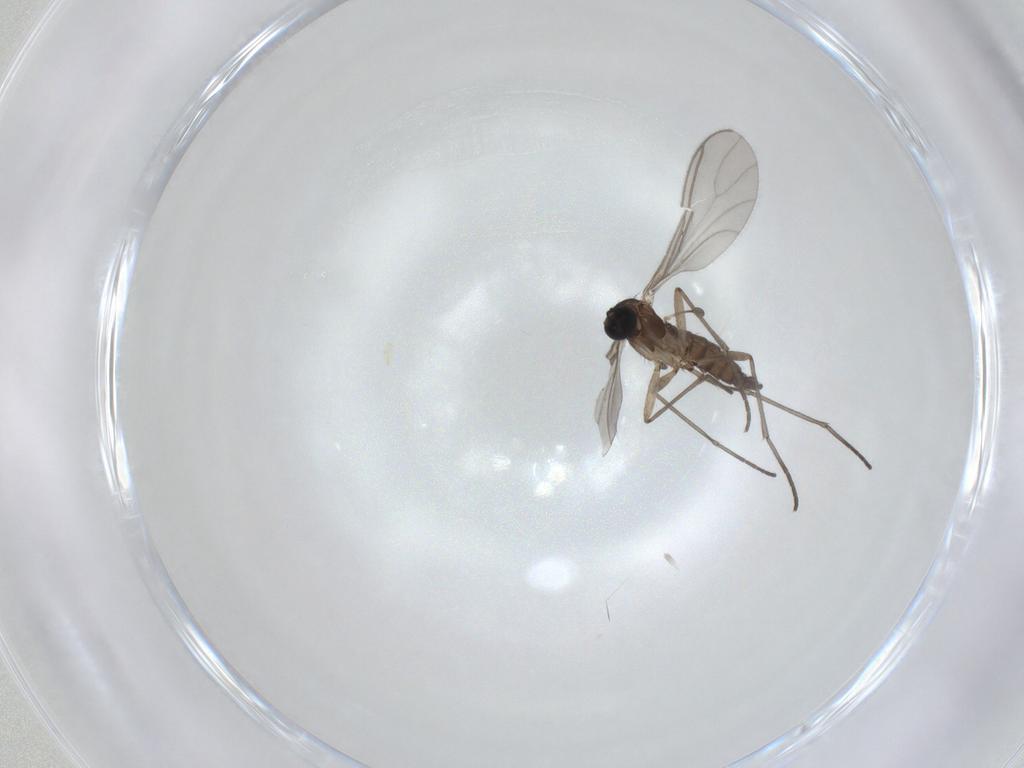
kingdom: Animalia
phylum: Arthropoda
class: Insecta
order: Diptera
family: Sciaridae
